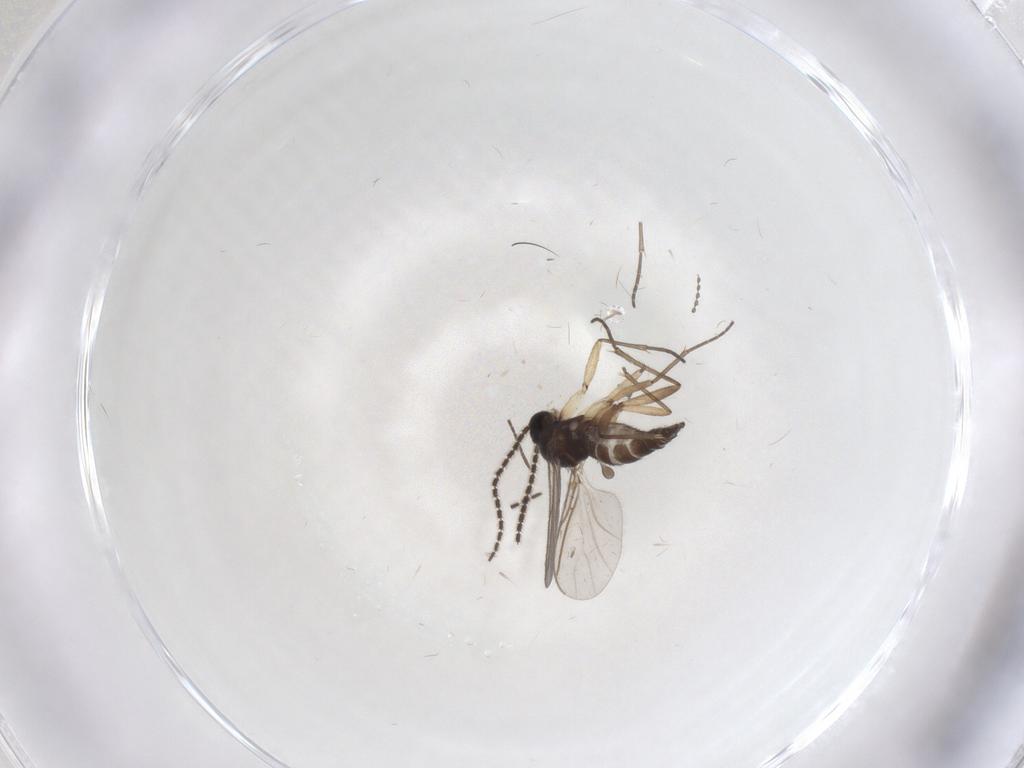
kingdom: Animalia
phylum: Arthropoda
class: Insecta
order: Diptera
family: Sciaridae
